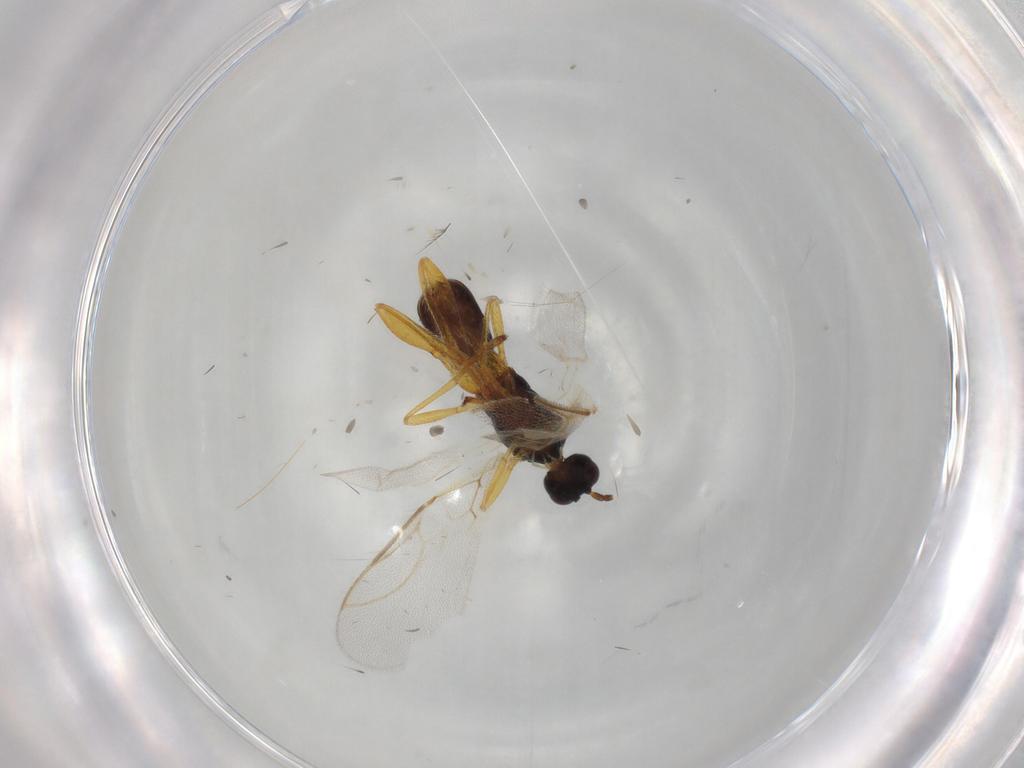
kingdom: Animalia
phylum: Arthropoda
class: Insecta
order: Hymenoptera
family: Braconidae
